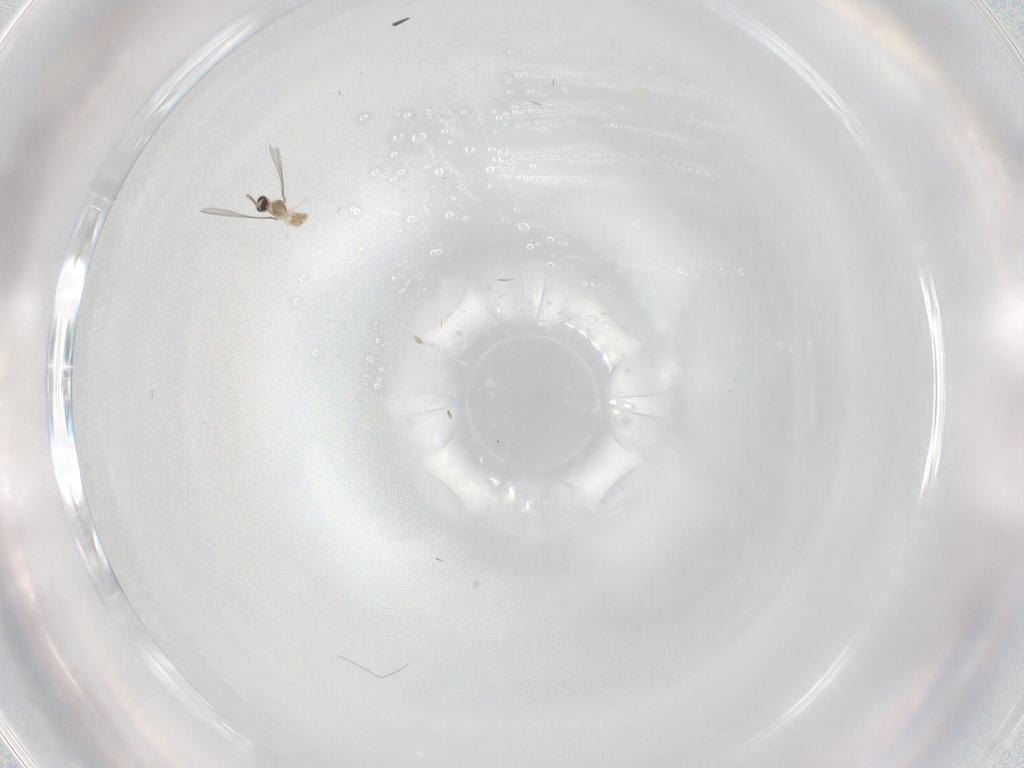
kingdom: Animalia
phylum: Arthropoda
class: Insecta
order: Diptera
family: Cecidomyiidae
